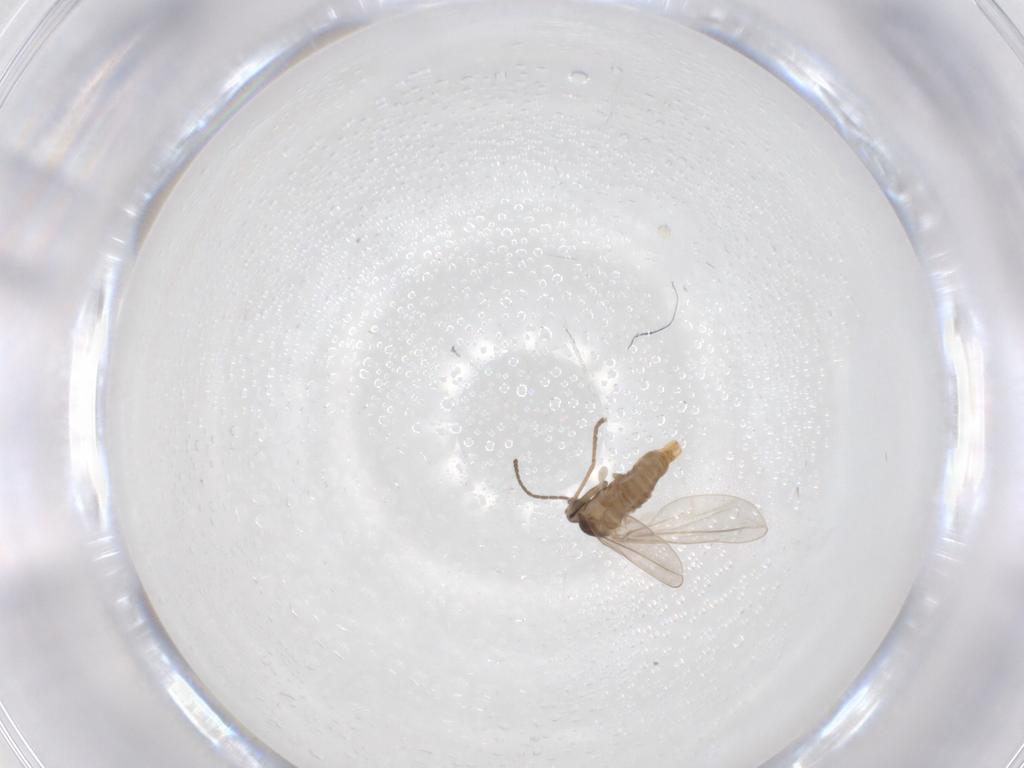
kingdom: Animalia
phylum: Arthropoda
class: Insecta
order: Diptera
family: Cecidomyiidae
